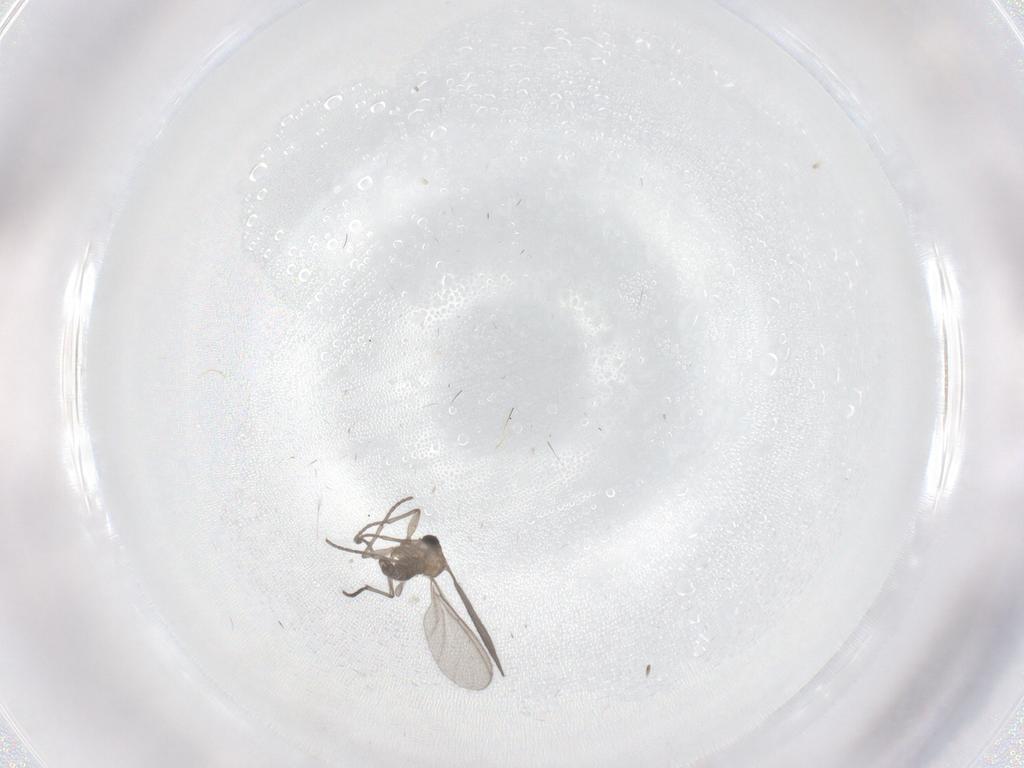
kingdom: Animalia
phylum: Arthropoda
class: Insecta
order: Diptera
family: Sciaridae
